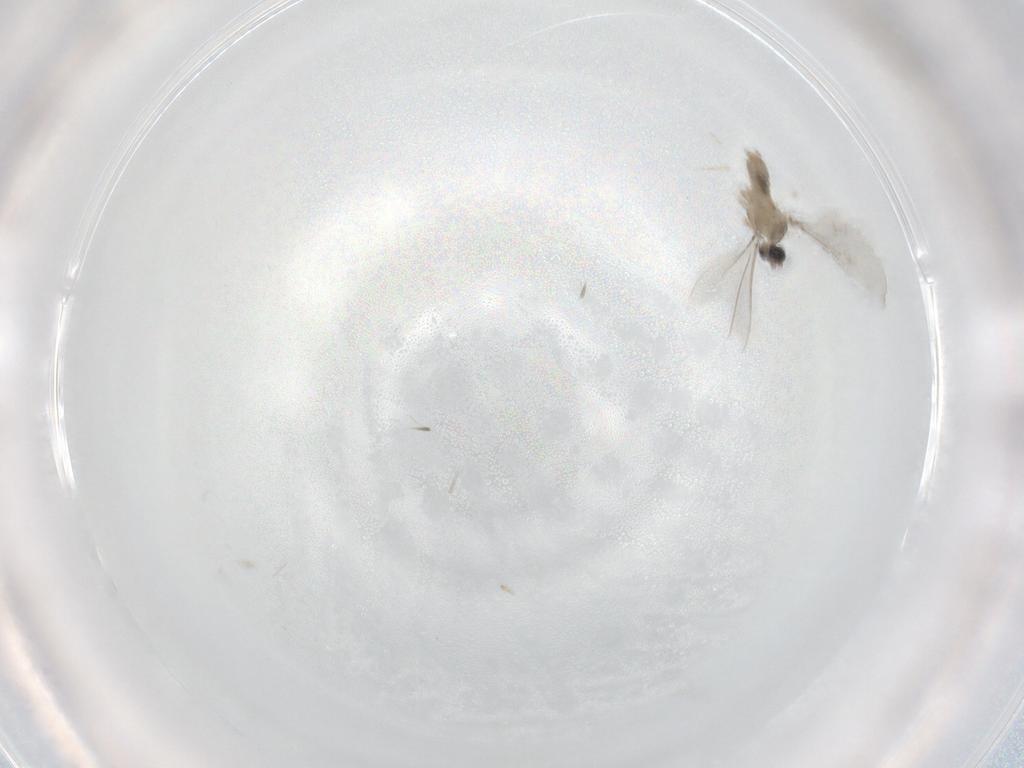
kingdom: Animalia
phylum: Arthropoda
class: Insecta
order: Diptera
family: Cecidomyiidae
